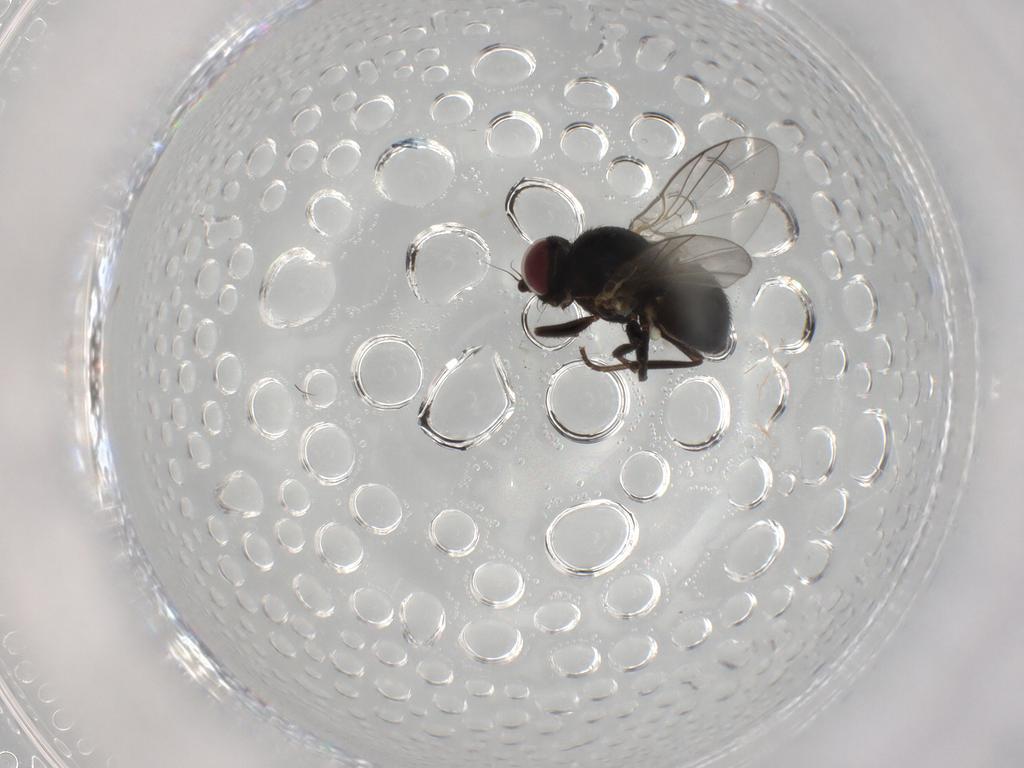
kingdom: Animalia
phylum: Arthropoda
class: Insecta
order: Diptera
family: Agromyzidae
